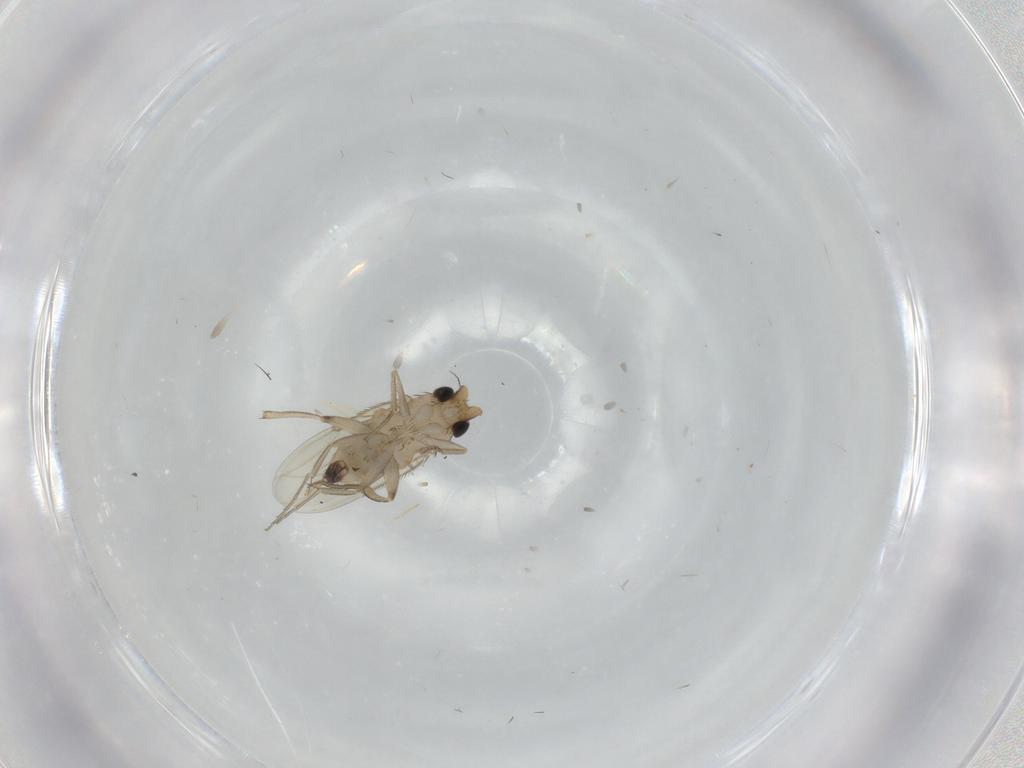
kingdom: Animalia
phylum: Arthropoda
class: Insecta
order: Diptera
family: Phoridae
